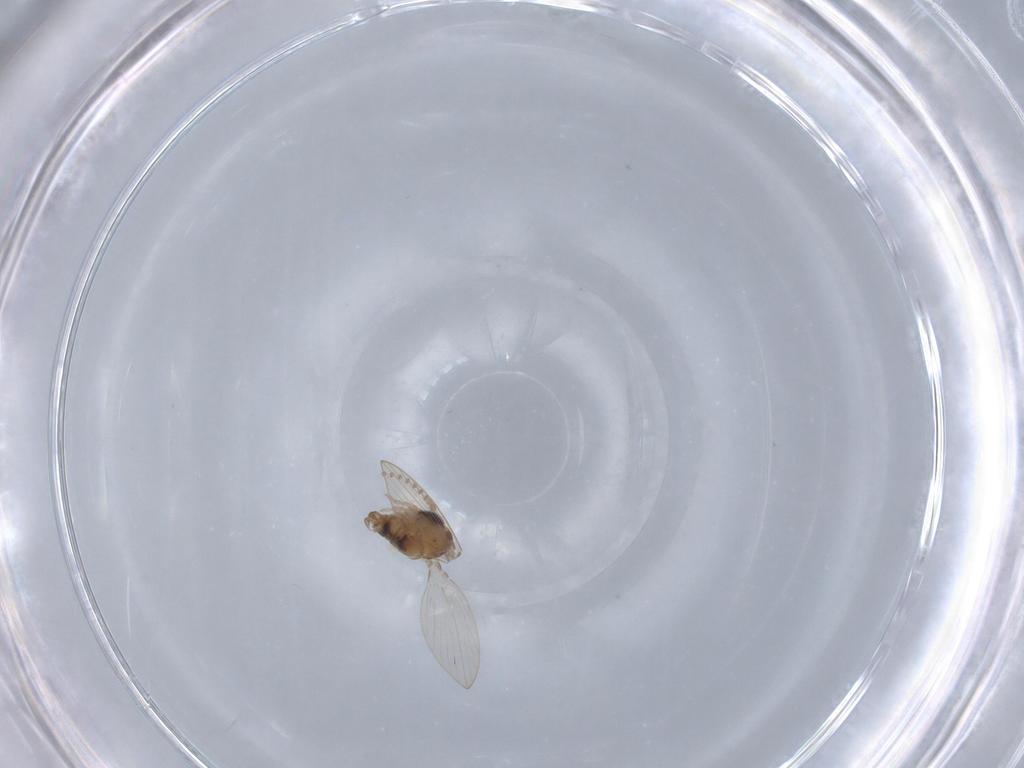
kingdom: Animalia
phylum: Arthropoda
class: Insecta
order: Diptera
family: Psychodidae
